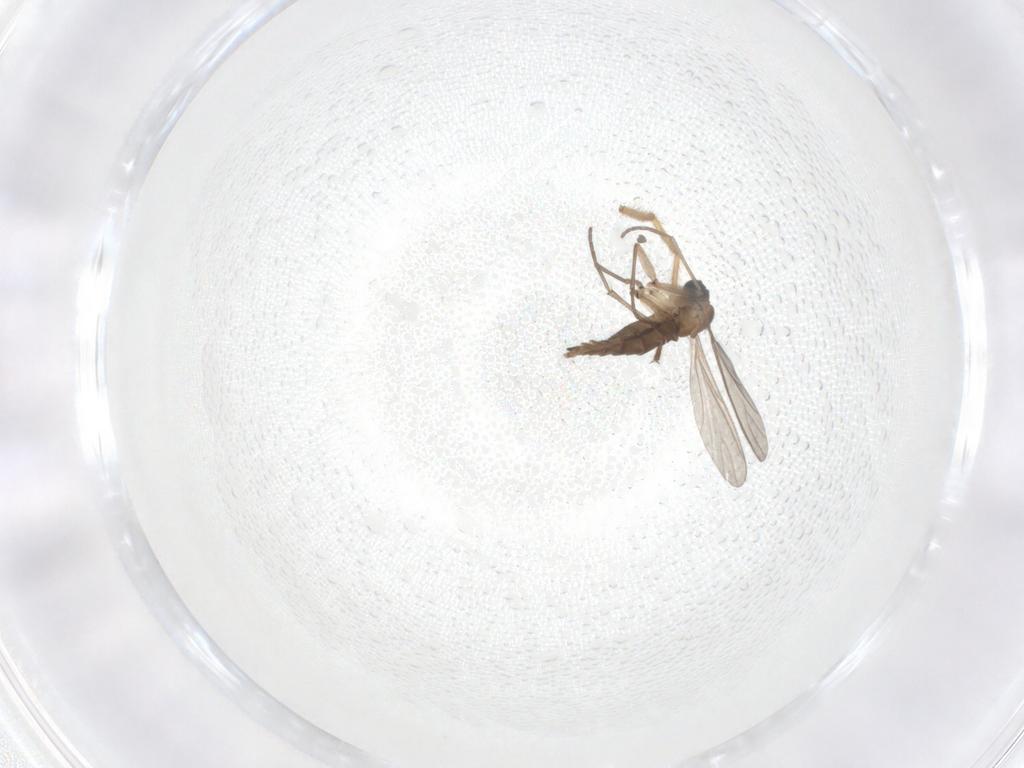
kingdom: Animalia
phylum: Arthropoda
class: Insecta
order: Diptera
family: Sciaridae
